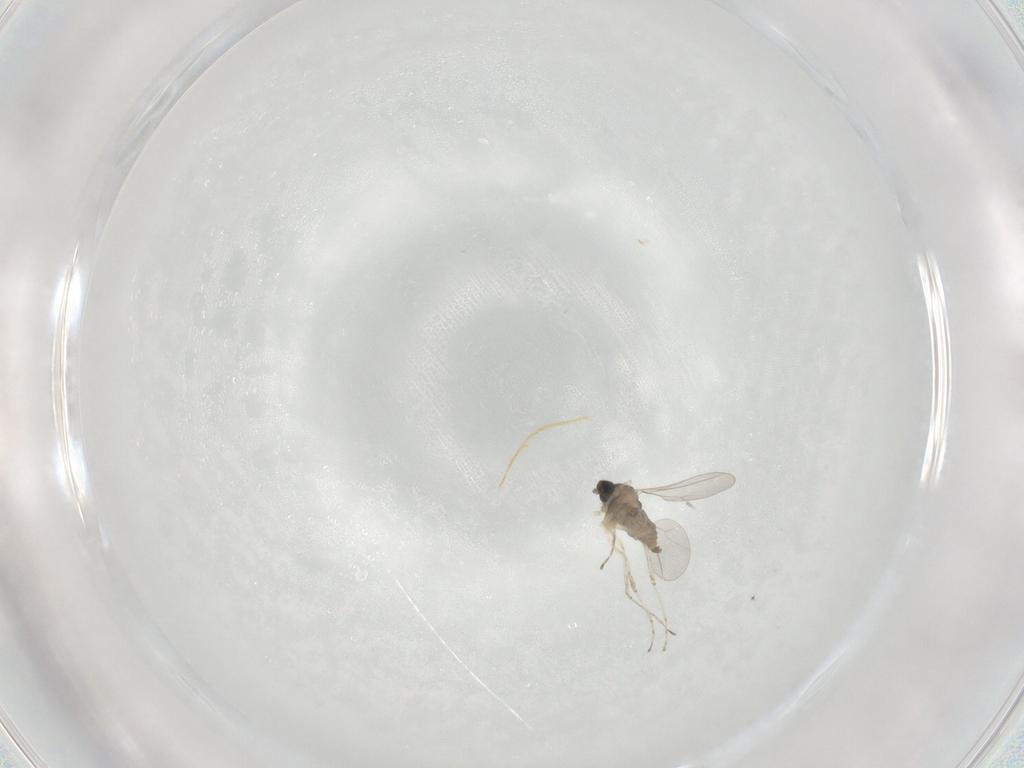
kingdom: Animalia
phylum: Arthropoda
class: Insecta
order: Diptera
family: Cecidomyiidae
